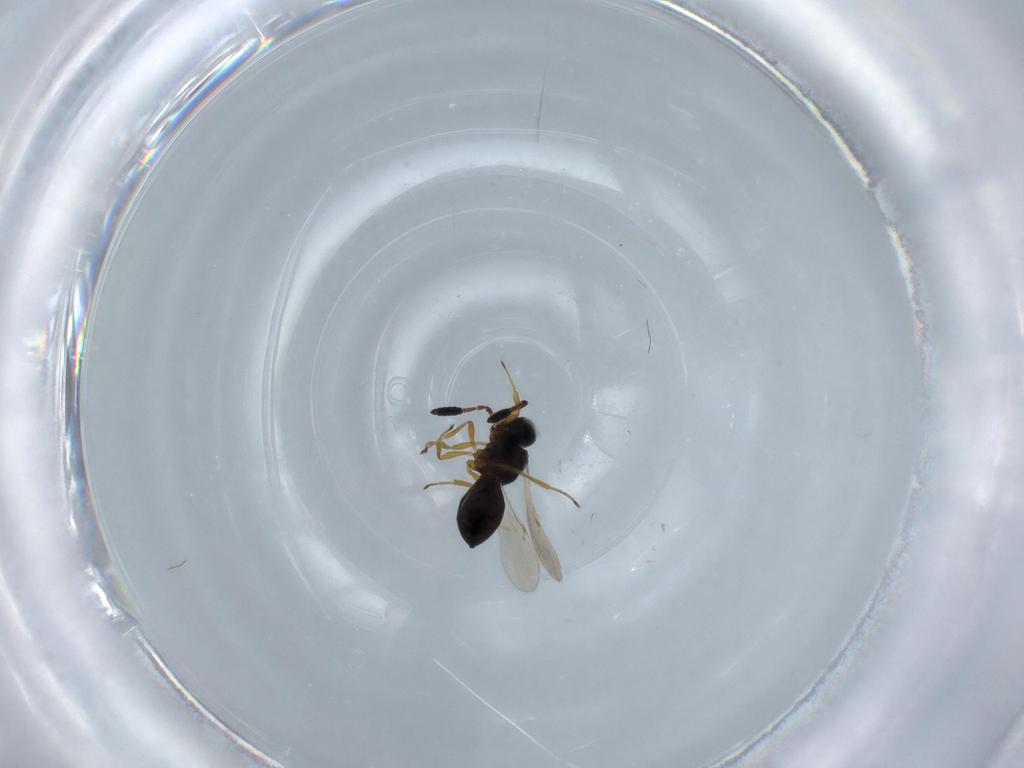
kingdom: Animalia
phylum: Arthropoda
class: Insecta
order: Hymenoptera
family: Scelionidae
